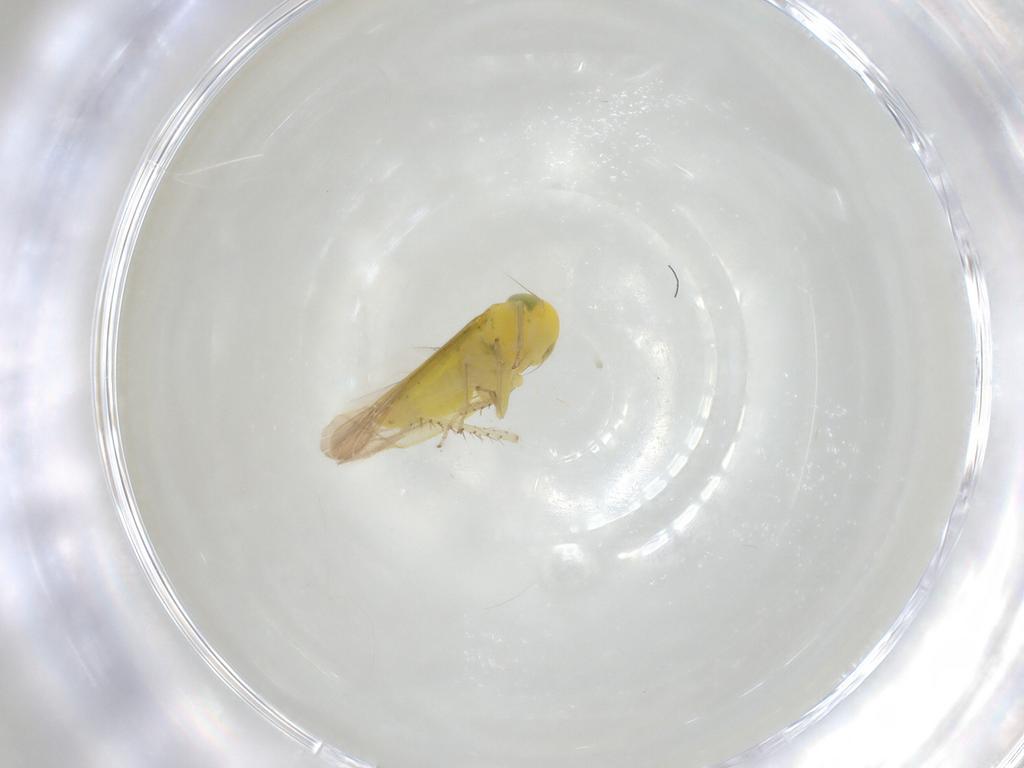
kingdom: Animalia
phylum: Arthropoda
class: Insecta
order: Hemiptera
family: Cicadellidae
